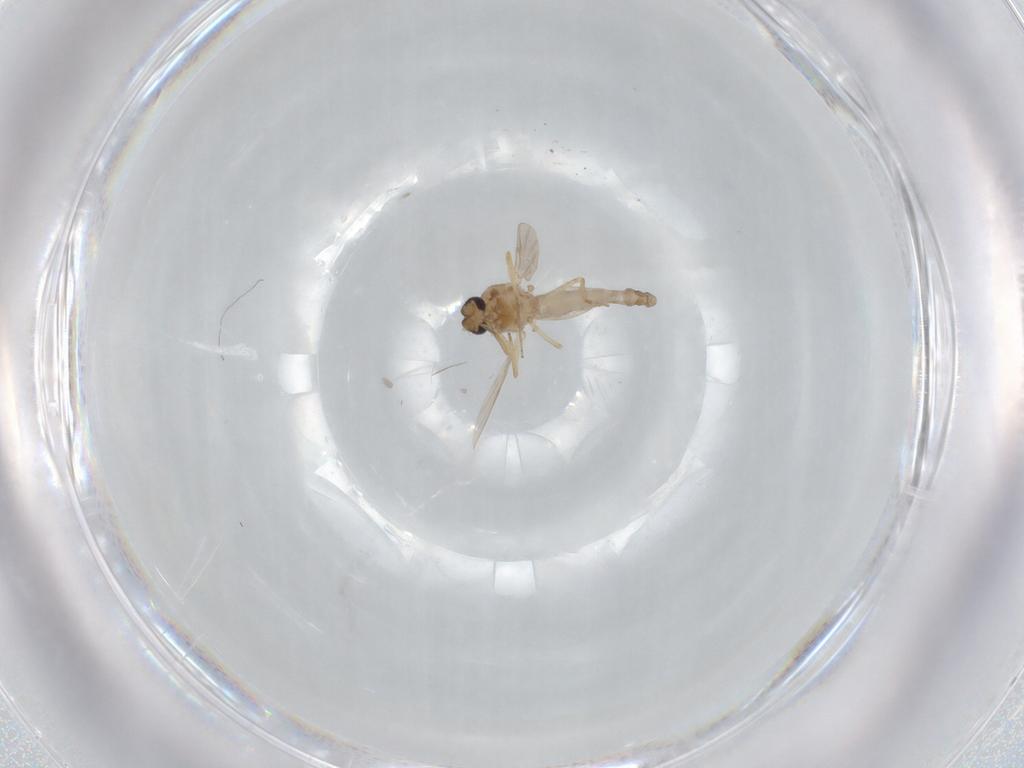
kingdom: Animalia
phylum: Arthropoda
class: Insecta
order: Diptera
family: Ceratopogonidae
